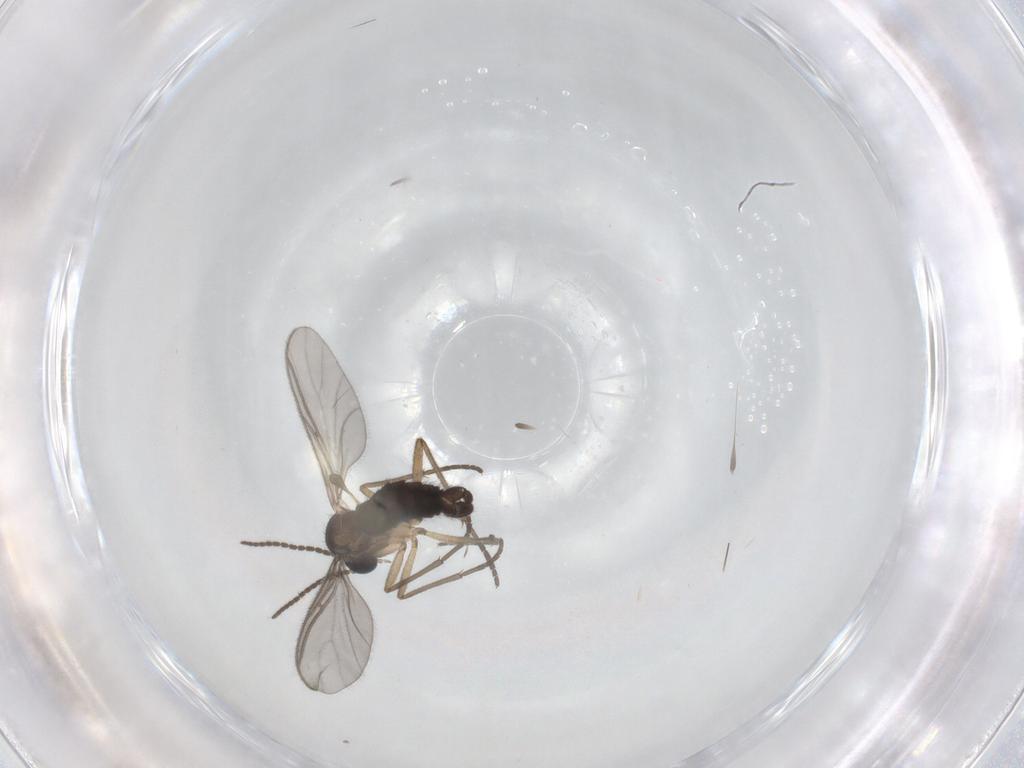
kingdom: Animalia
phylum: Arthropoda
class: Insecta
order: Diptera
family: Sciaridae
